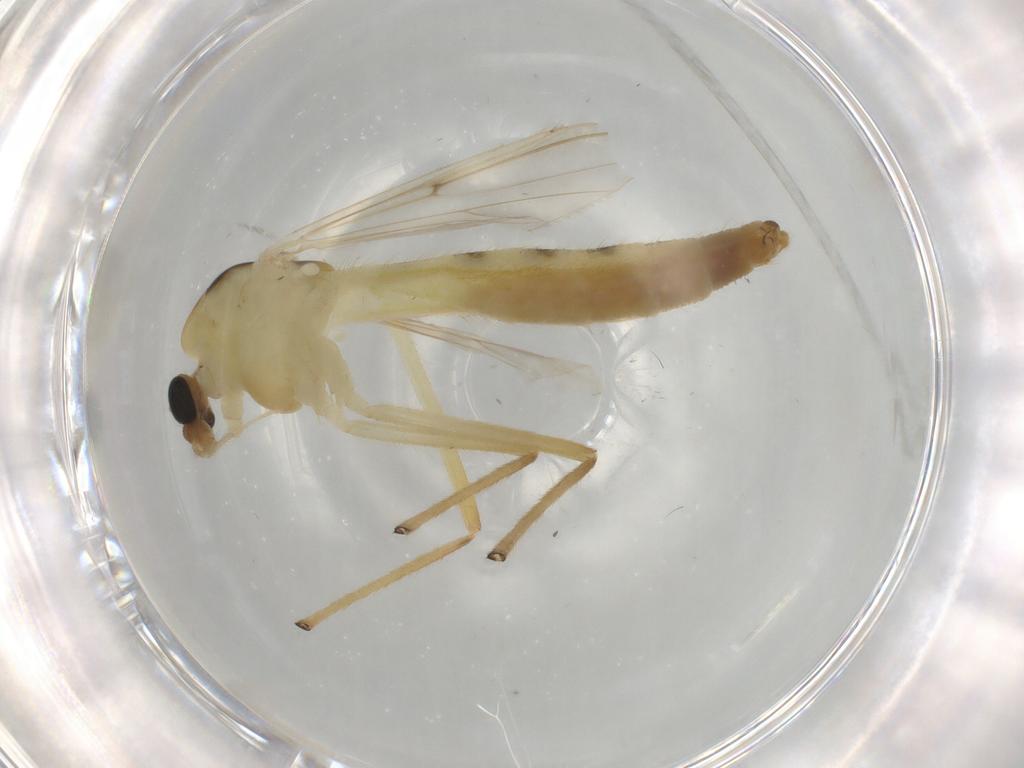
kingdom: Animalia
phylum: Arthropoda
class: Insecta
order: Diptera
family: Chironomidae
